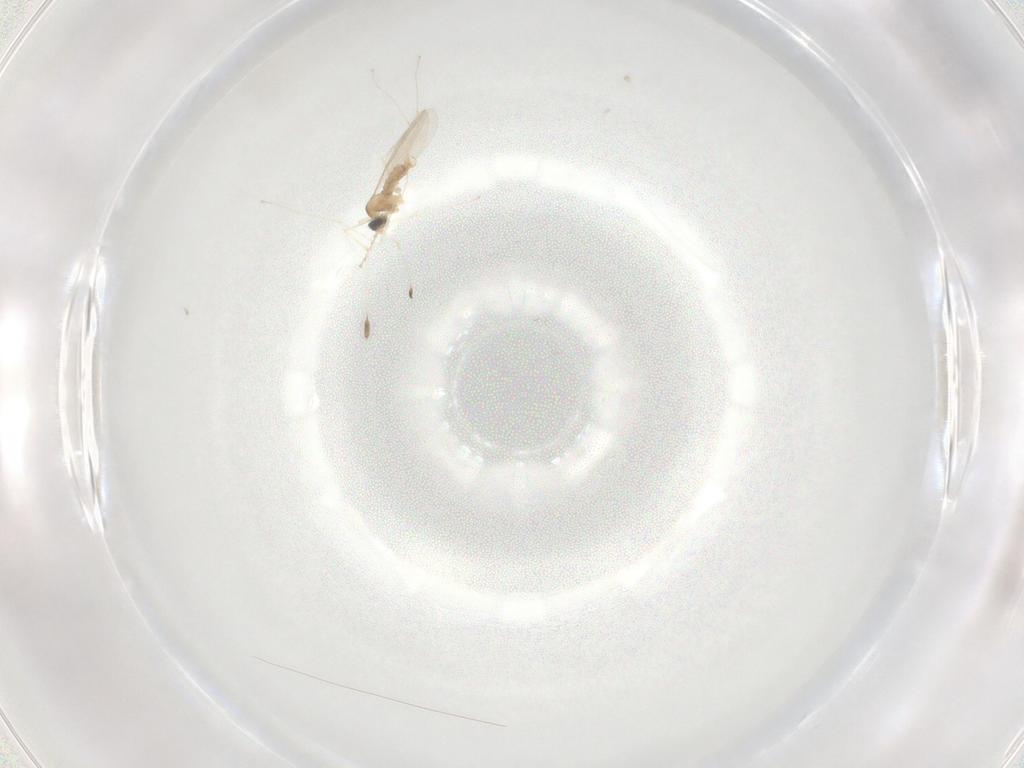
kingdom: Animalia
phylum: Arthropoda
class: Insecta
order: Diptera
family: Cecidomyiidae
